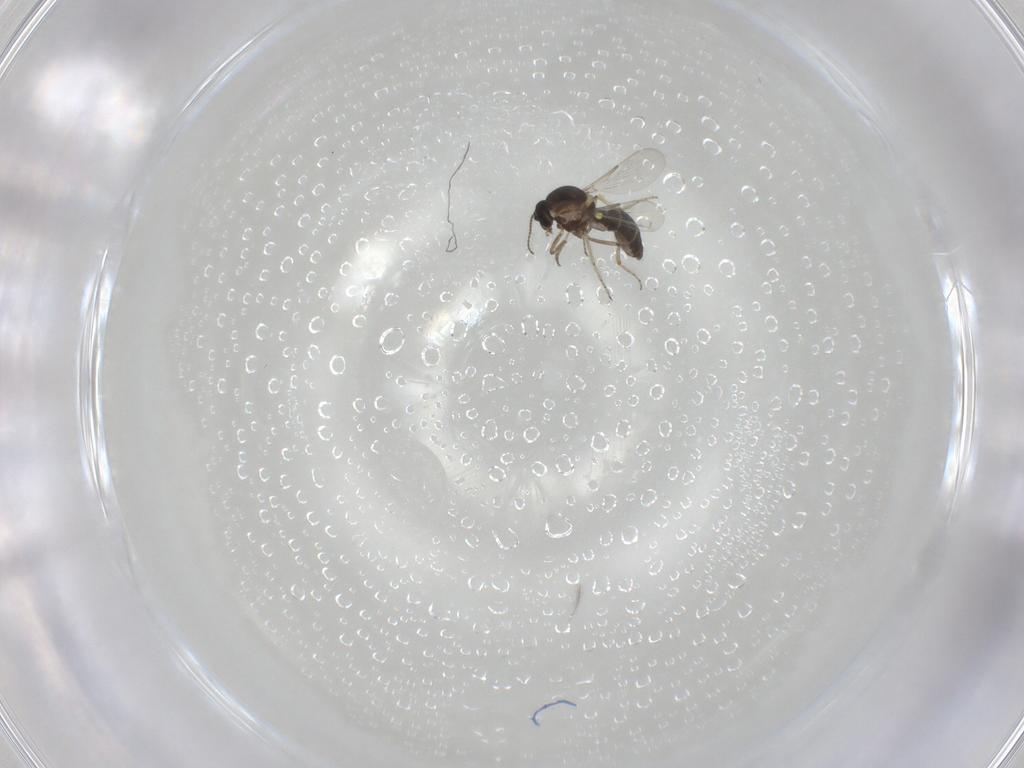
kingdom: Animalia
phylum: Arthropoda
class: Insecta
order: Diptera
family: Ceratopogonidae
